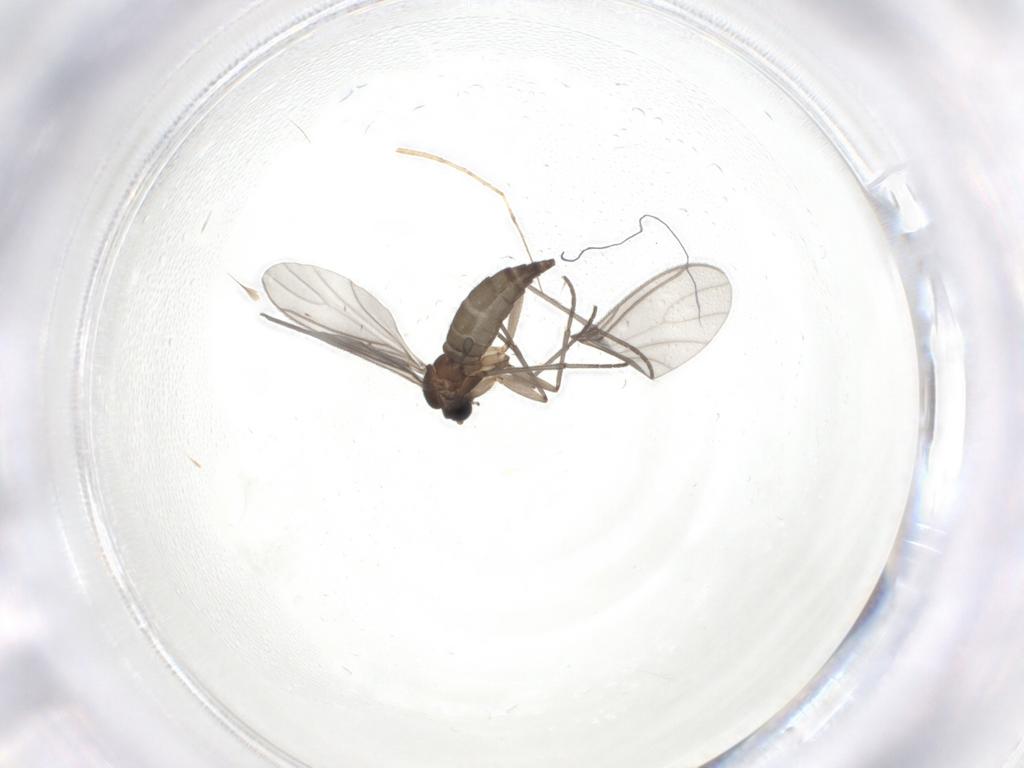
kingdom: Animalia
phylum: Arthropoda
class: Insecta
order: Diptera
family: Sciaridae
